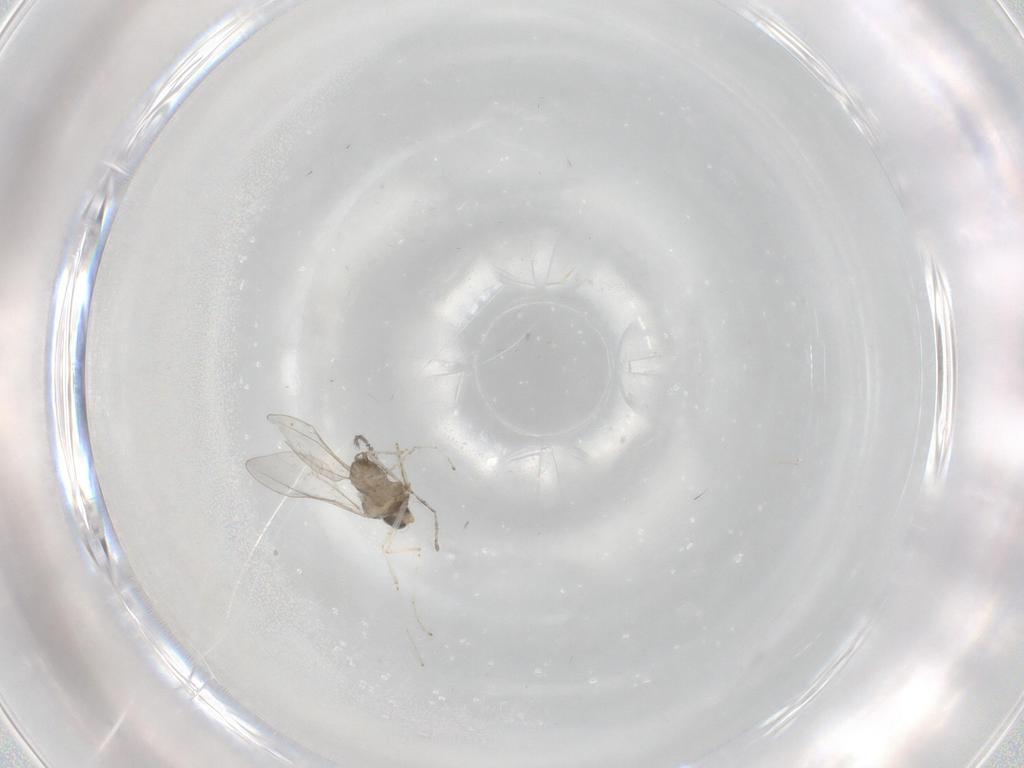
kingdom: Animalia
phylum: Arthropoda
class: Insecta
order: Diptera
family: Cecidomyiidae
